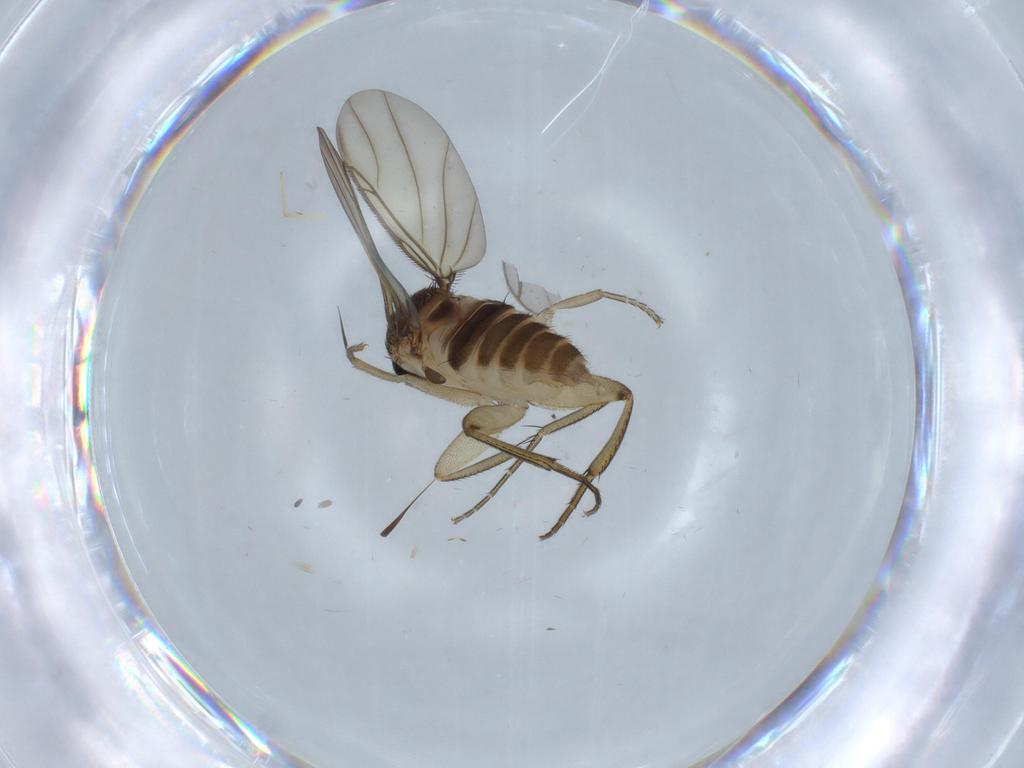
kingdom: Animalia
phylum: Arthropoda
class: Insecta
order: Diptera
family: Phoridae
